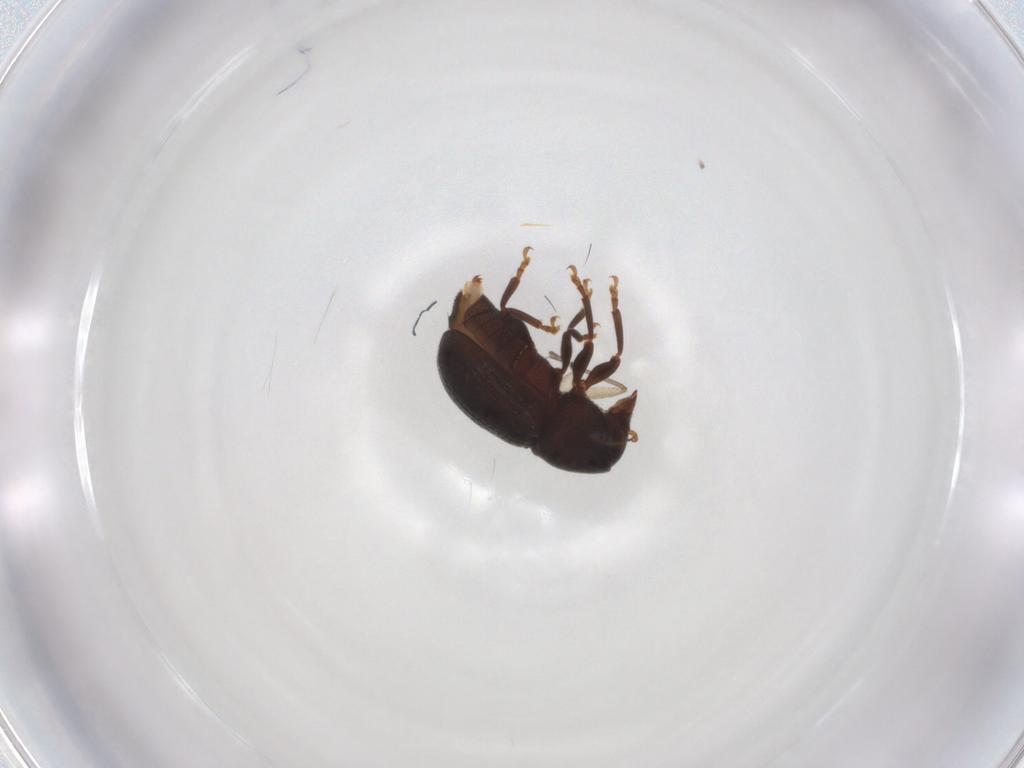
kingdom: Animalia
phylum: Arthropoda
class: Insecta
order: Coleoptera
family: Anthribidae
